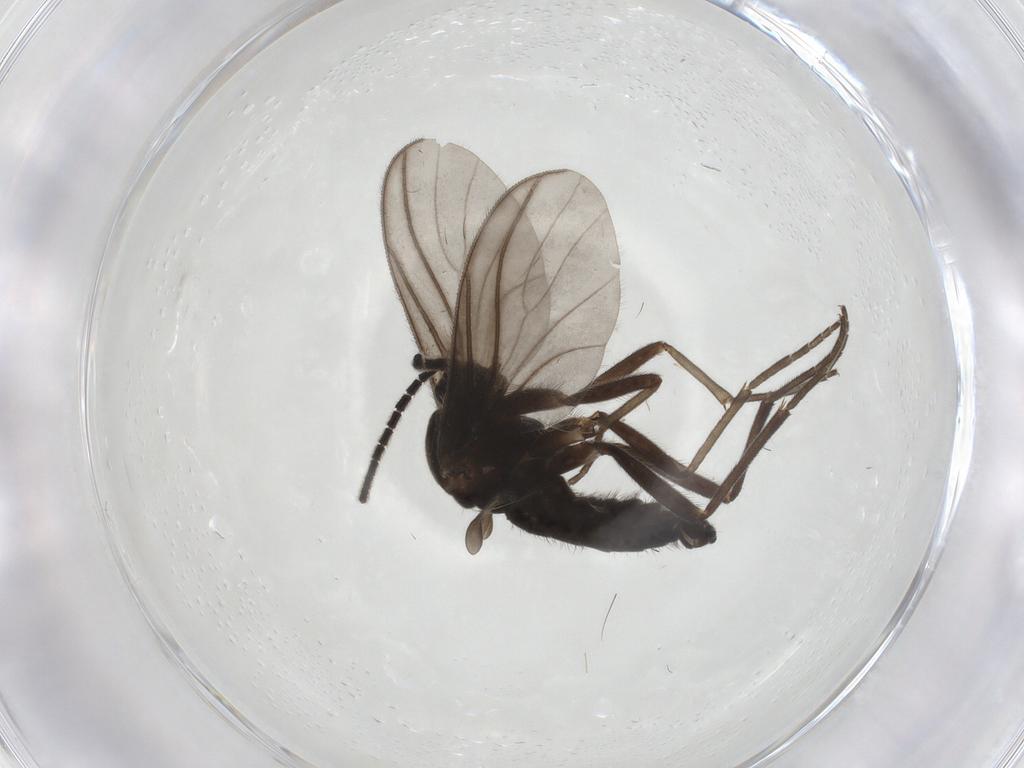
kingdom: Animalia
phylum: Arthropoda
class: Insecta
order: Diptera
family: Sciaridae
